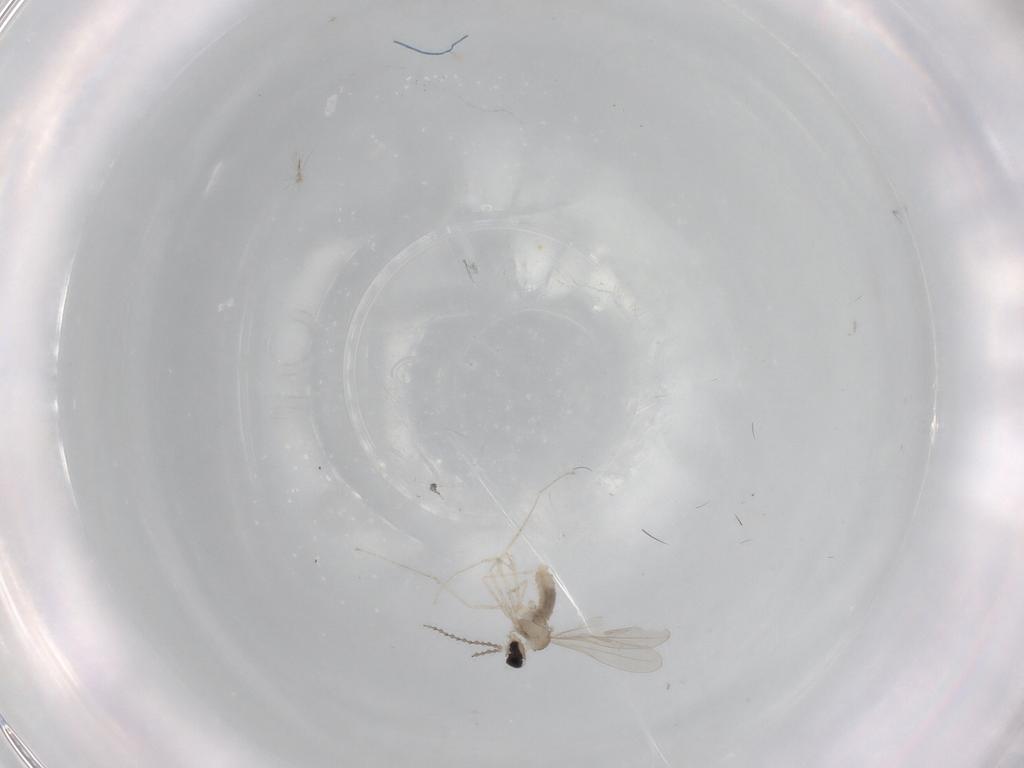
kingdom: Animalia
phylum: Arthropoda
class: Insecta
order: Diptera
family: Cecidomyiidae
